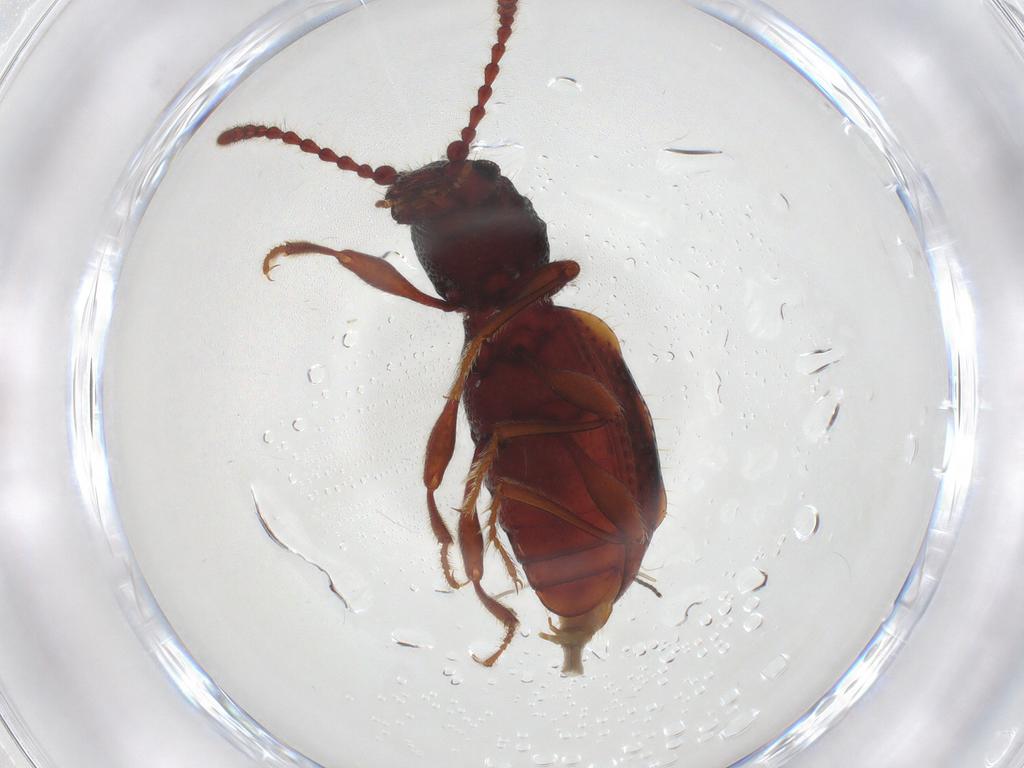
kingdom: Animalia
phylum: Arthropoda
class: Insecta
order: Coleoptera
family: Ptinidae
